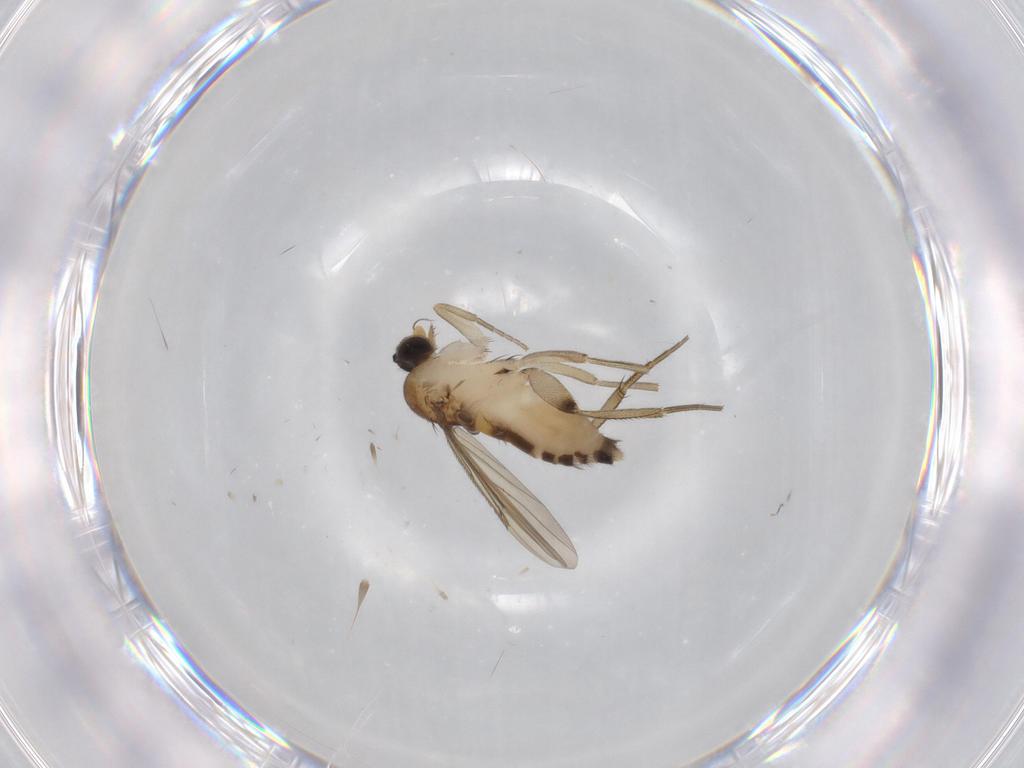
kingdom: Animalia
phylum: Arthropoda
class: Insecta
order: Diptera
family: Phoridae
